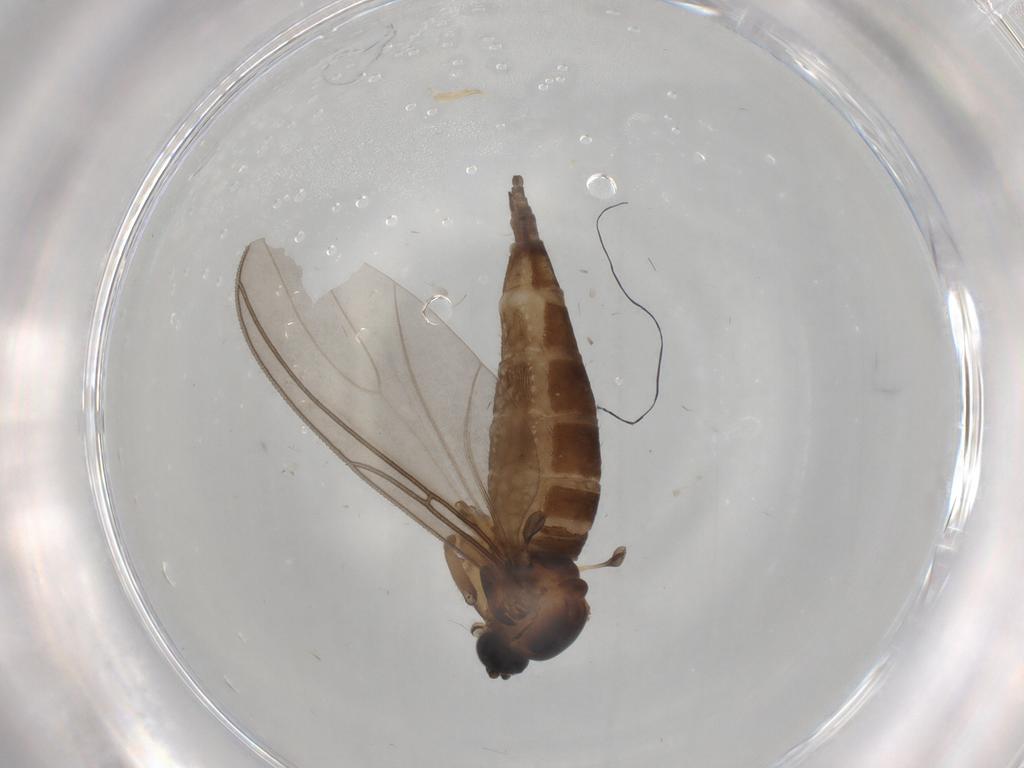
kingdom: Animalia
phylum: Arthropoda
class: Insecta
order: Diptera
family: Sciaridae
